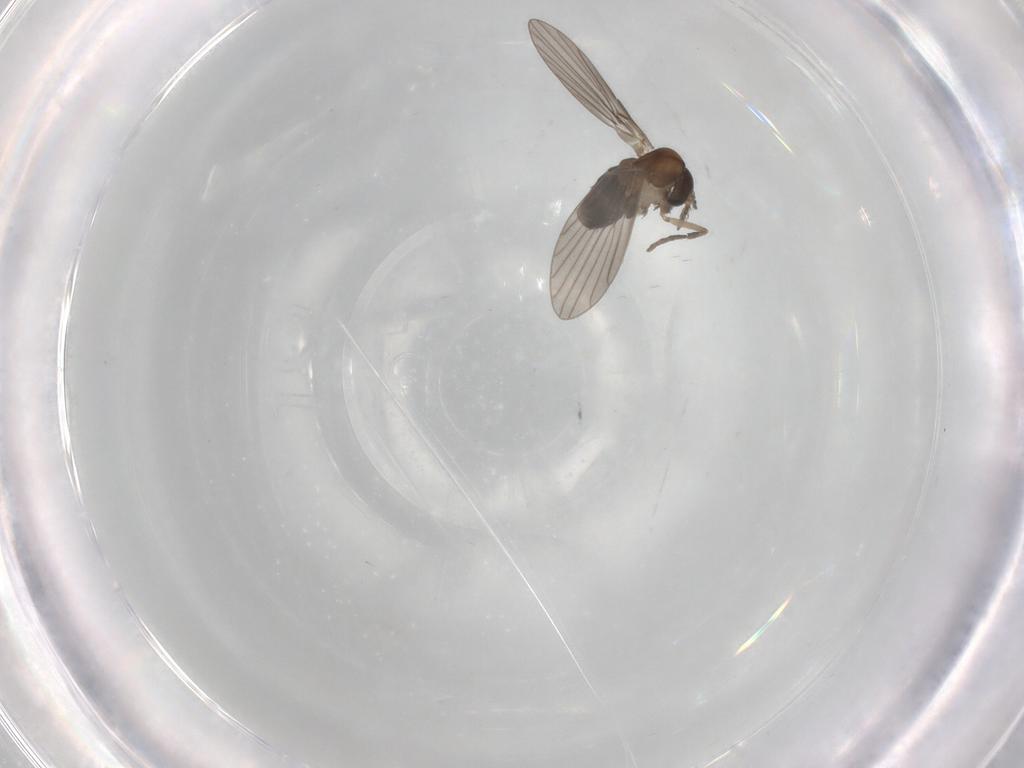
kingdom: Animalia
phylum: Arthropoda
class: Insecta
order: Diptera
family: Psychodidae
